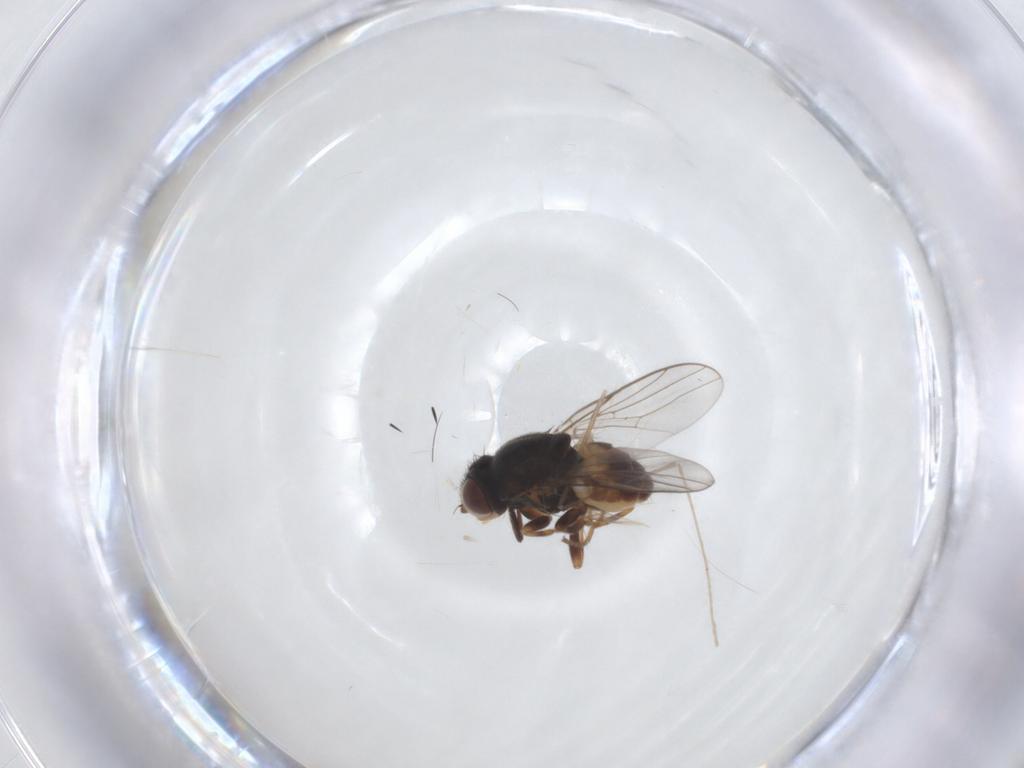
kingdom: Animalia
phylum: Arthropoda
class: Insecta
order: Diptera
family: Chloropidae
